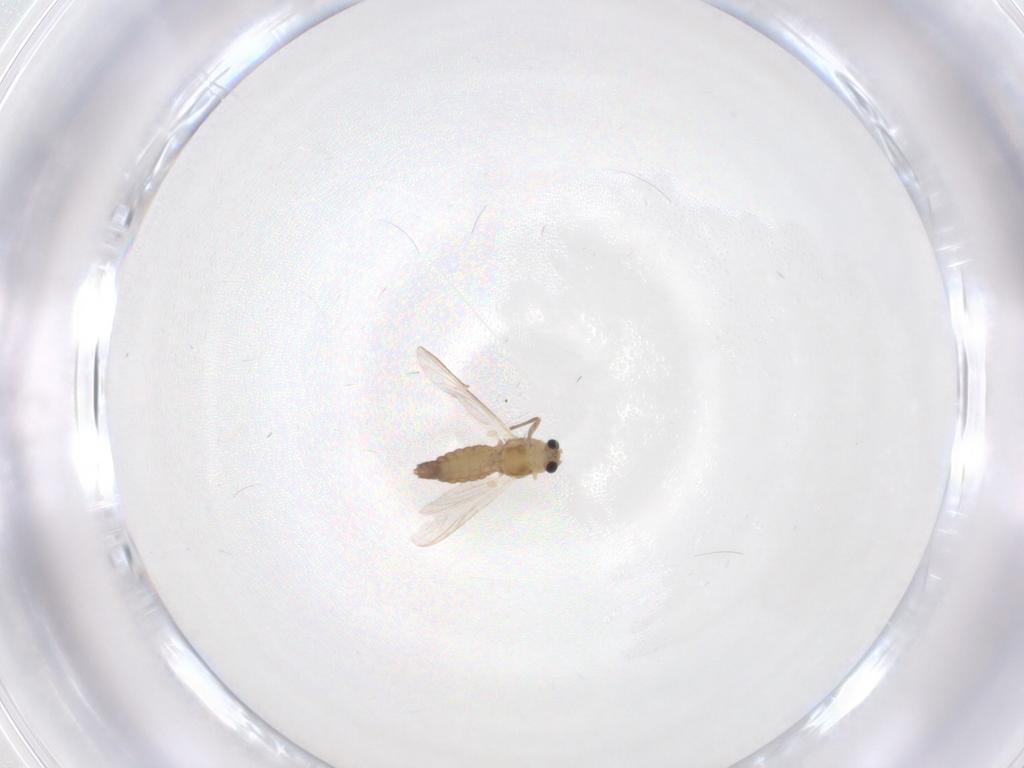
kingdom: Animalia
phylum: Arthropoda
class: Insecta
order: Diptera
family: Chironomidae
